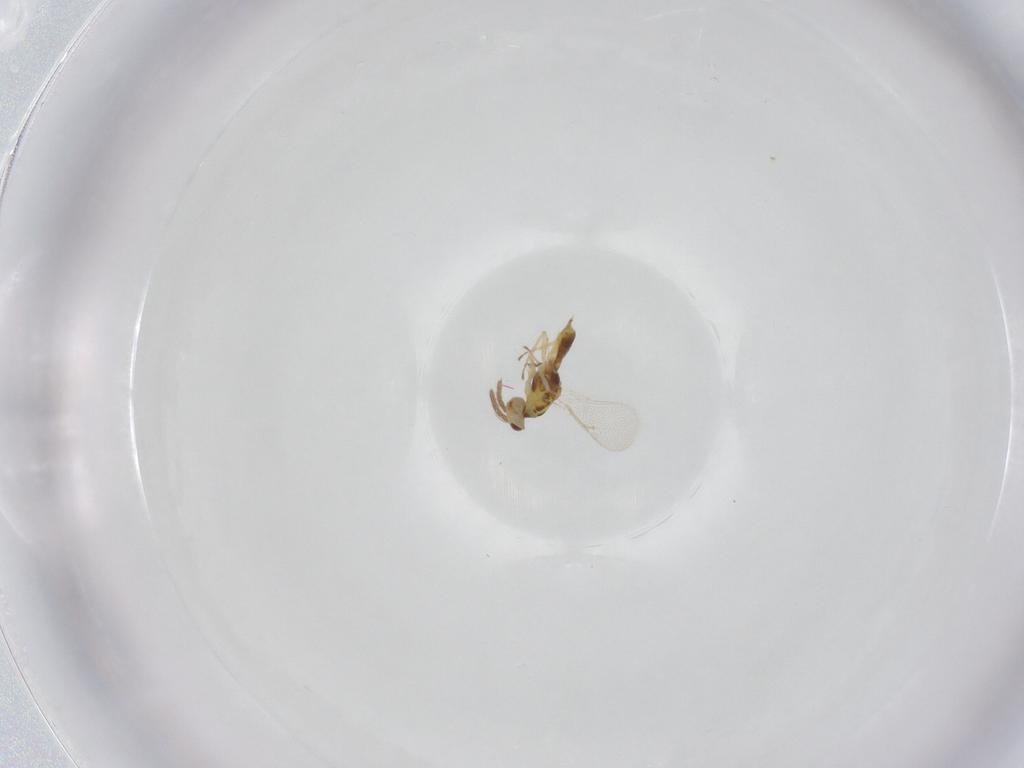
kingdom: Animalia
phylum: Arthropoda
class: Insecta
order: Hymenoptera
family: Eulophidae
